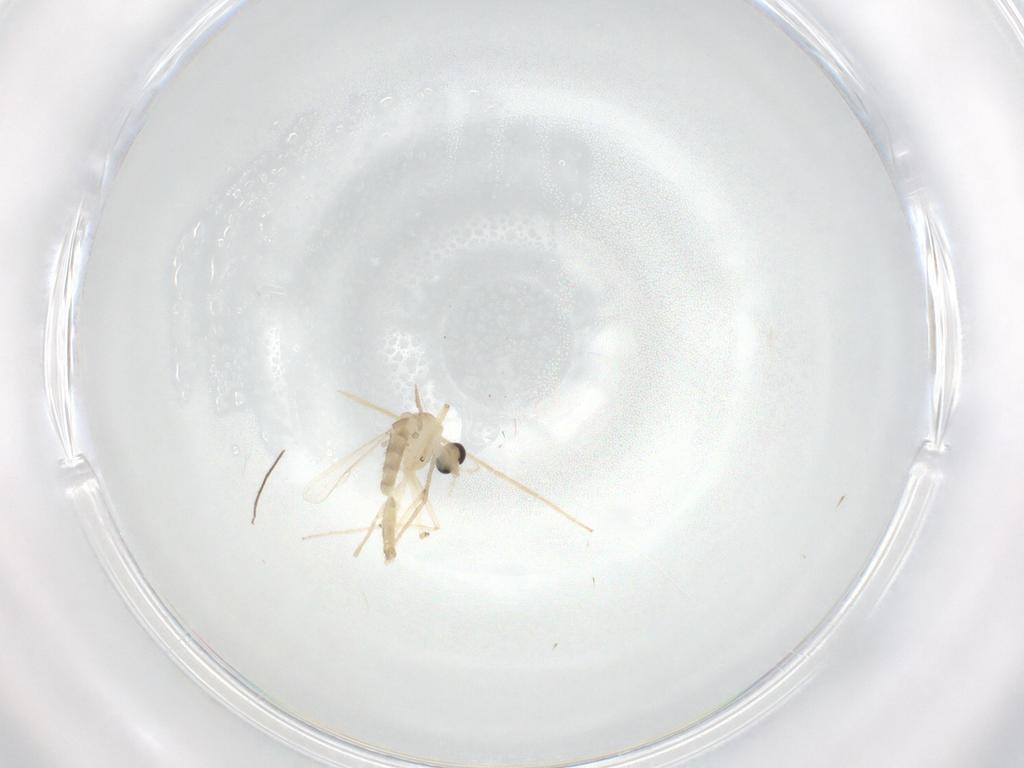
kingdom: Animalia
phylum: Arthropoda
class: Insecta
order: Diptera
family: Chironomidae
